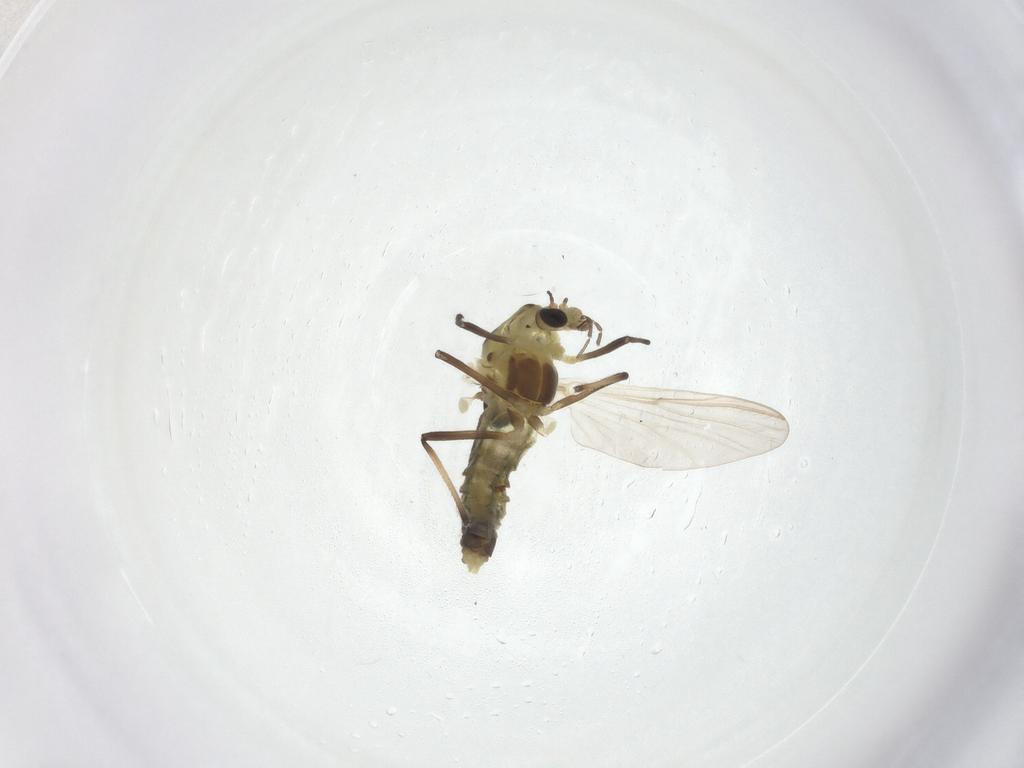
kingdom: Animalia
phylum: Arthropoda
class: Insecta
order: Diptera
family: Chironomidae
